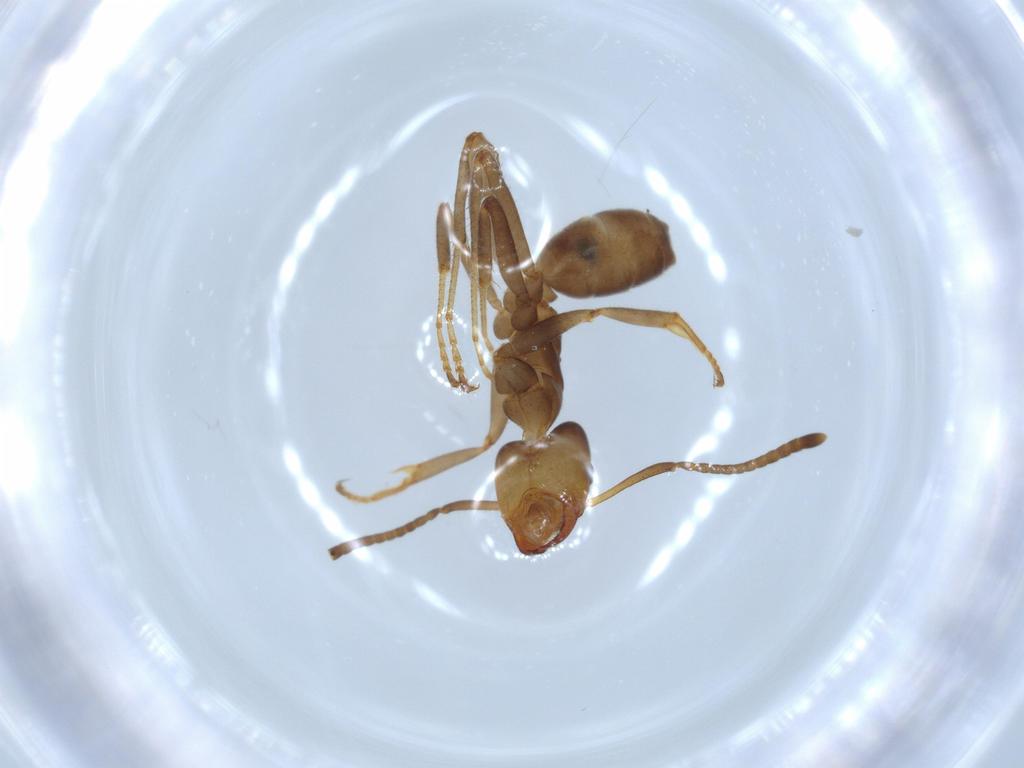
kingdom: Animalia
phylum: Arthropoda
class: Insecta
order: Hymenoptera
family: Formicidae
